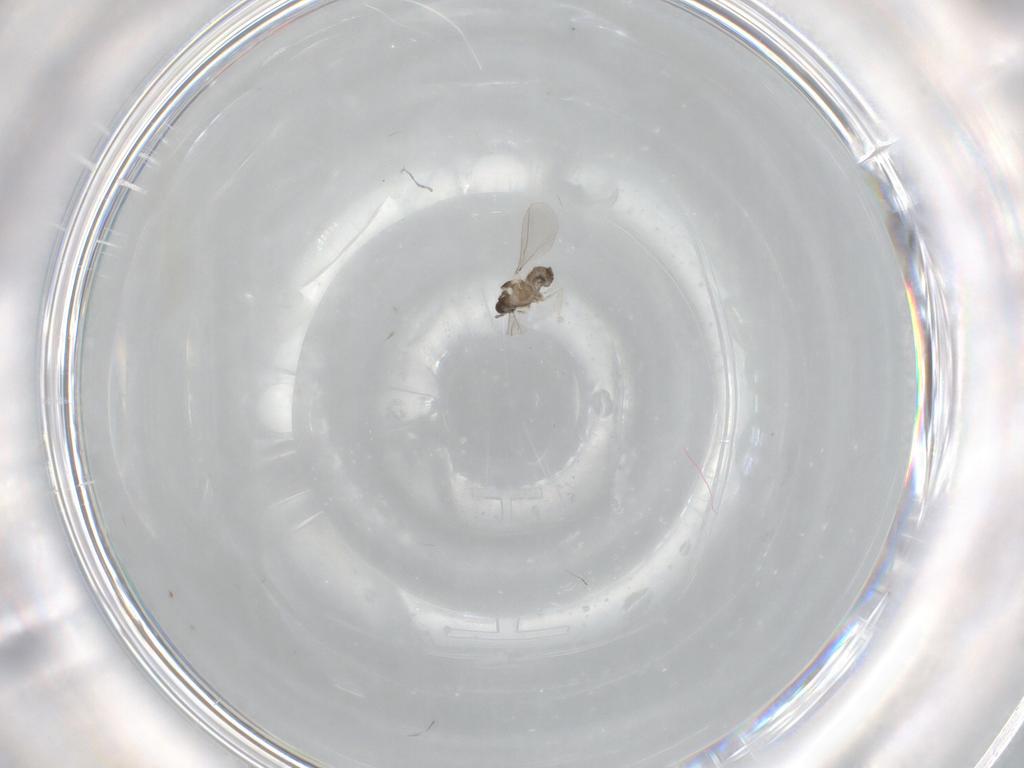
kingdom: Animalia
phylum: Arthropoda
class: Insecta
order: Diptera
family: Cecidomyiidae
